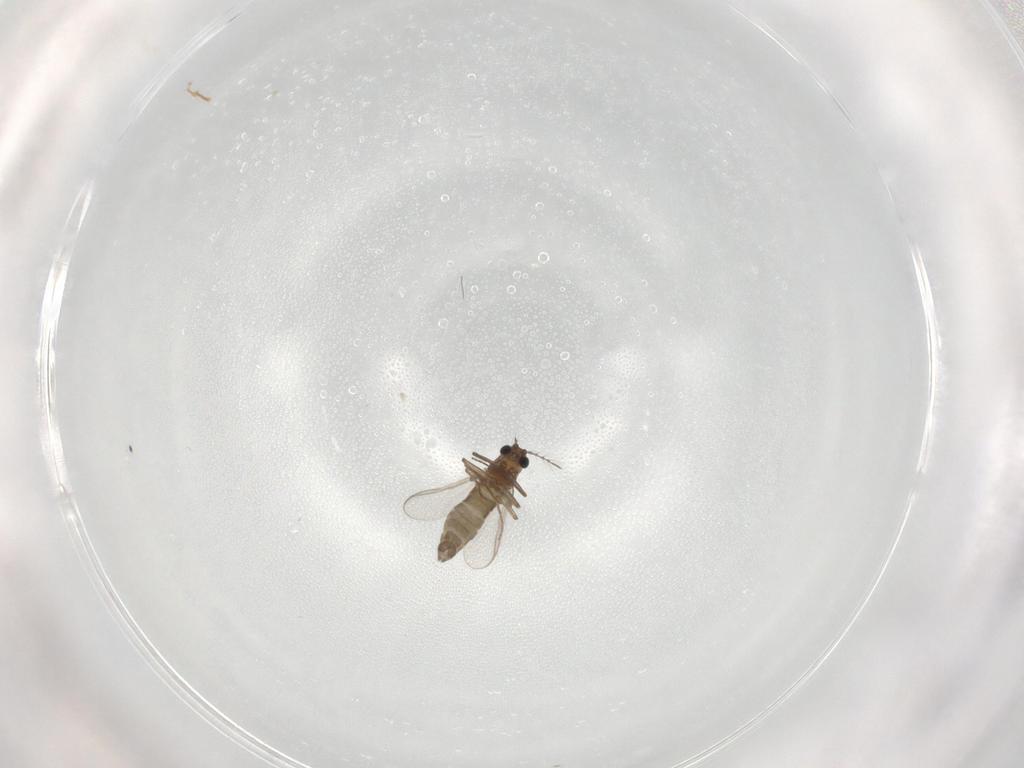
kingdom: Animalia
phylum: Arthropoda
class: Insecta
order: Diptera
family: Chironomidae
